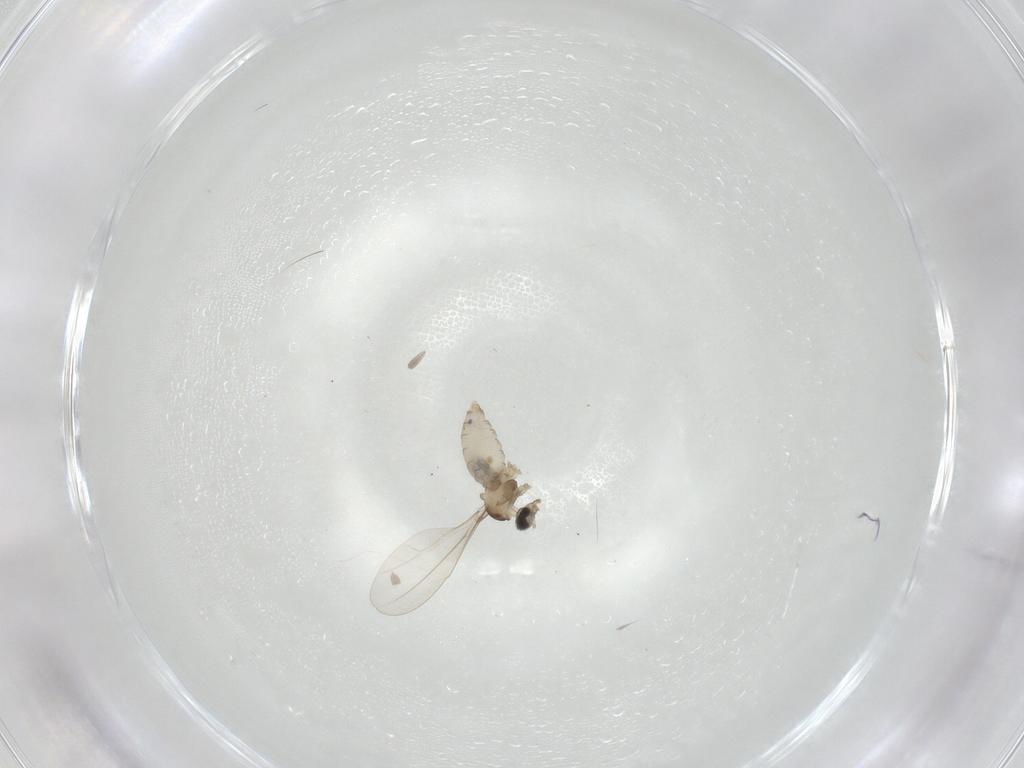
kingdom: Animalia
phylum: Arthropoda
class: Insecta
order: Diptera
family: Cecidomyiidae
